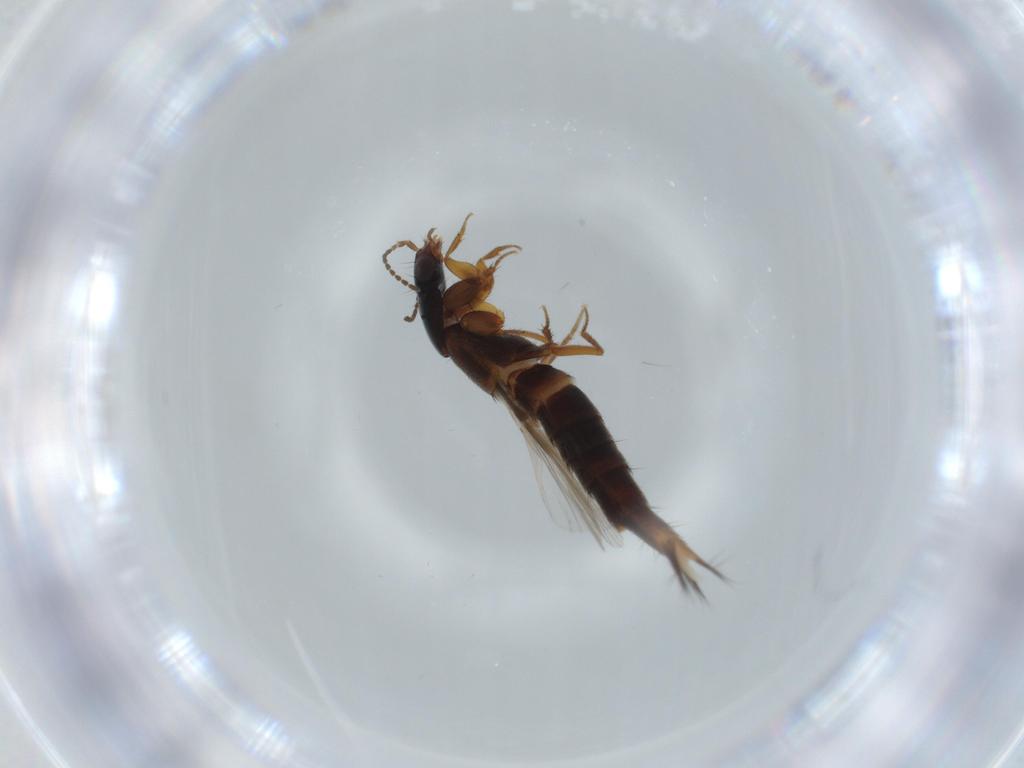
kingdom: Animalia
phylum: Arthropoda
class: Insecta
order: Coleoptera
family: Staphylinidae
